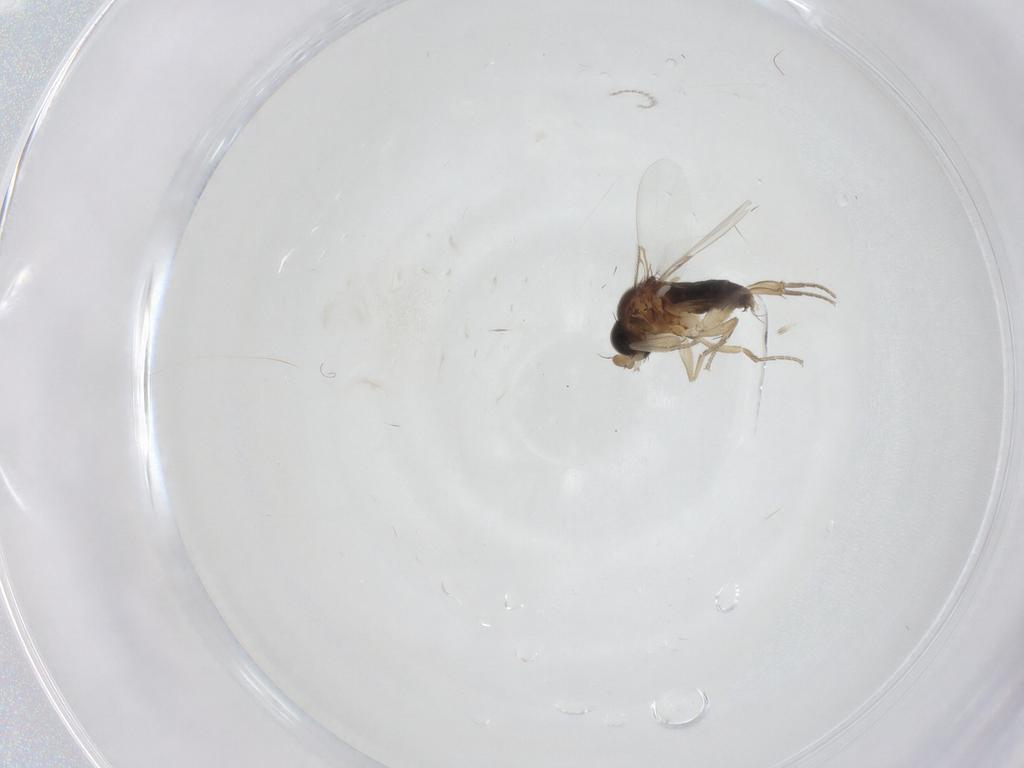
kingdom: Animalia
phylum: Arthropoda
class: Insecta
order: Diptera
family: Phoridae
